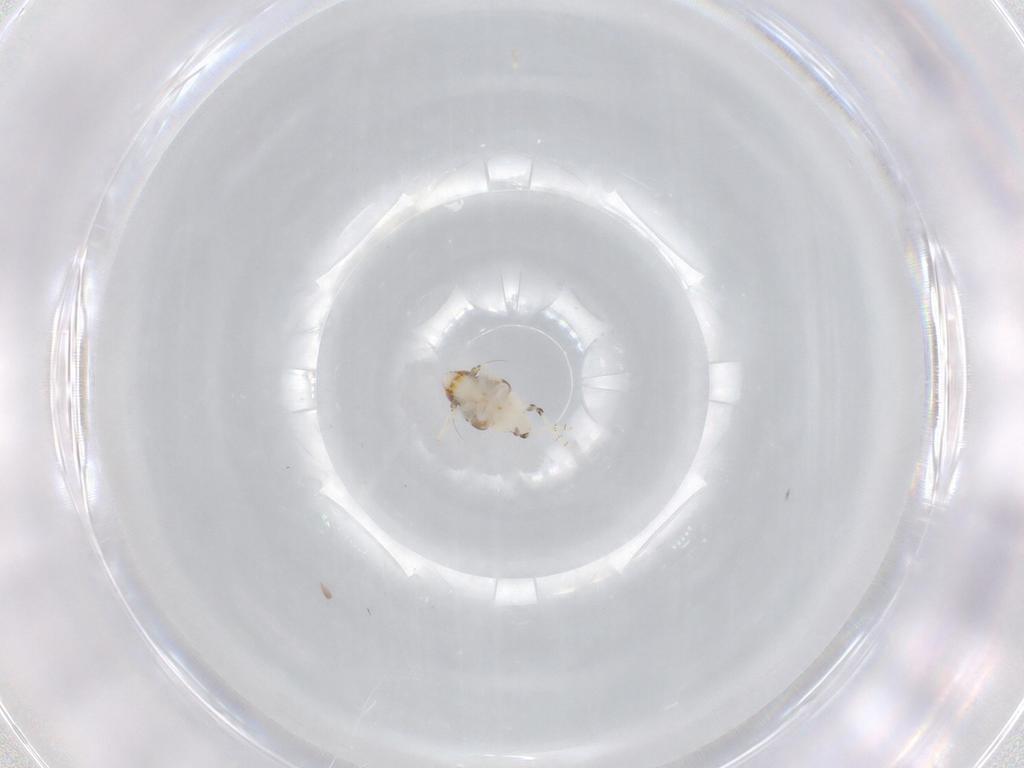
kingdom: Animalia
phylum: Arthropoda
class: Insecta
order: Hemiptera
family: Nogodinidae
